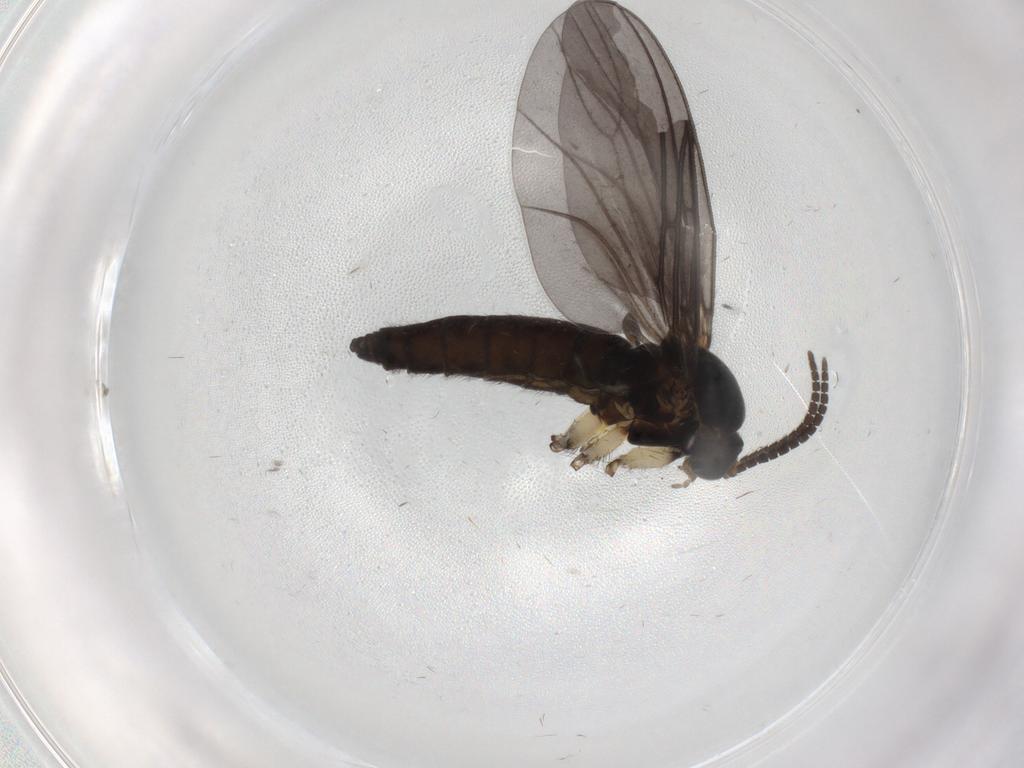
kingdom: Animalia
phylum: Arthropoda
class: Insecta
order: Diptera
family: Sciaridae
